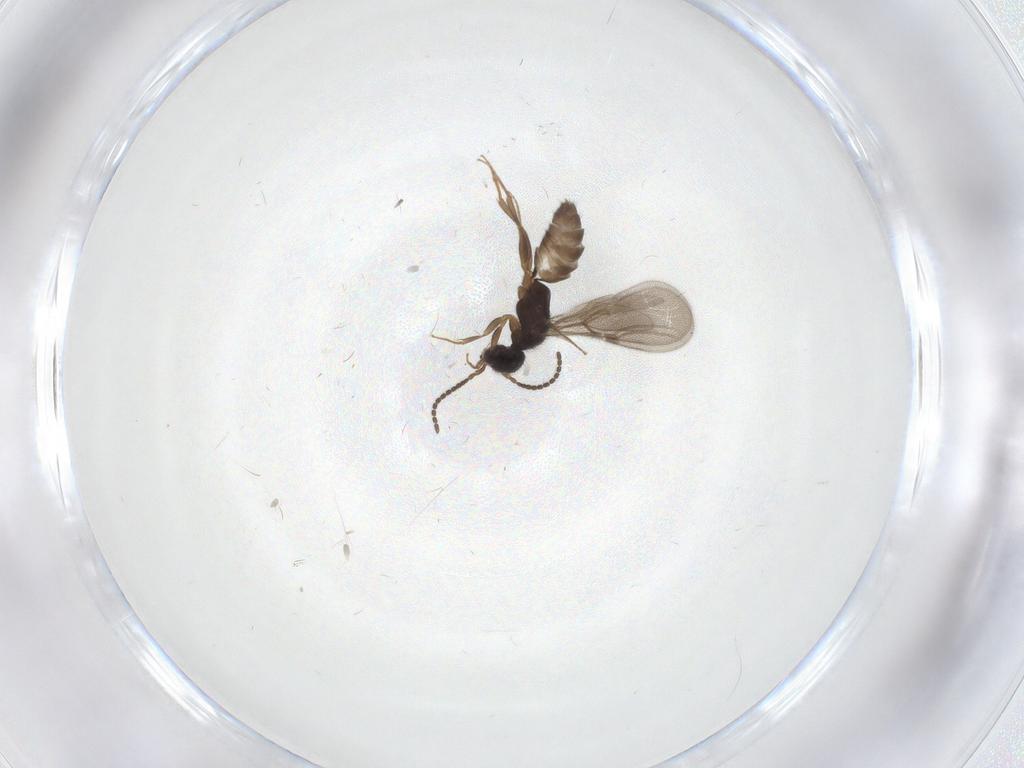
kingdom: Animalia
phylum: Arthropoda
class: Insecta
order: Hymenoptera
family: Bethylidae
